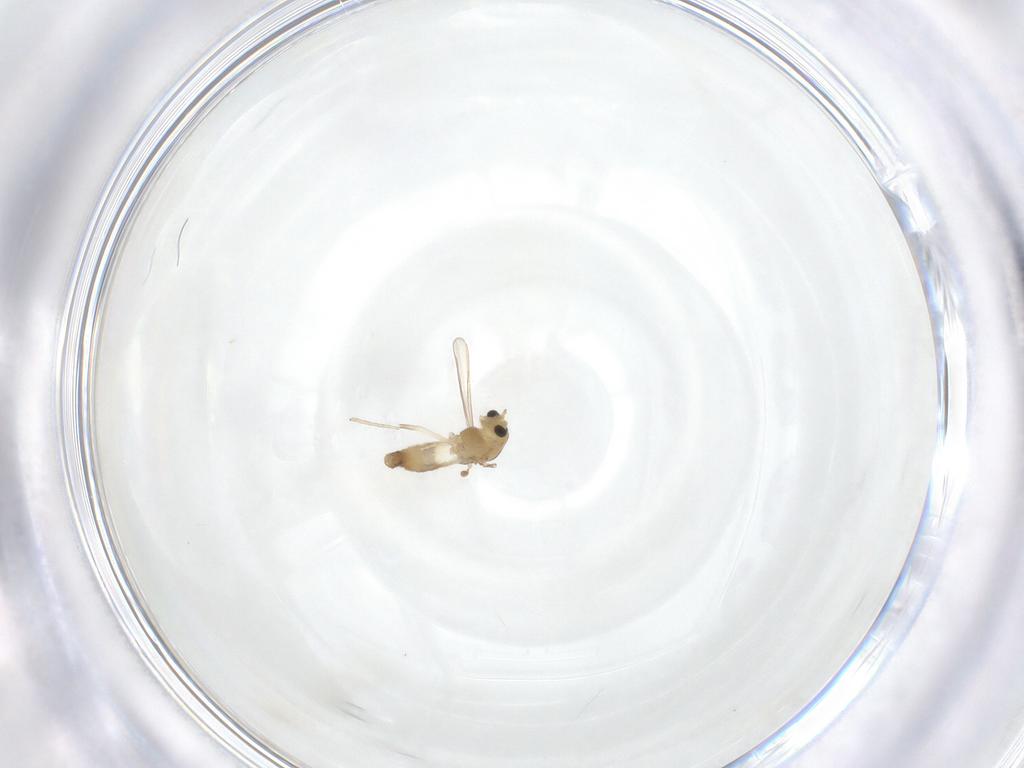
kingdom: Animalia
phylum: Arthropoda
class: Insecta
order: Diptera
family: Chironomidae
